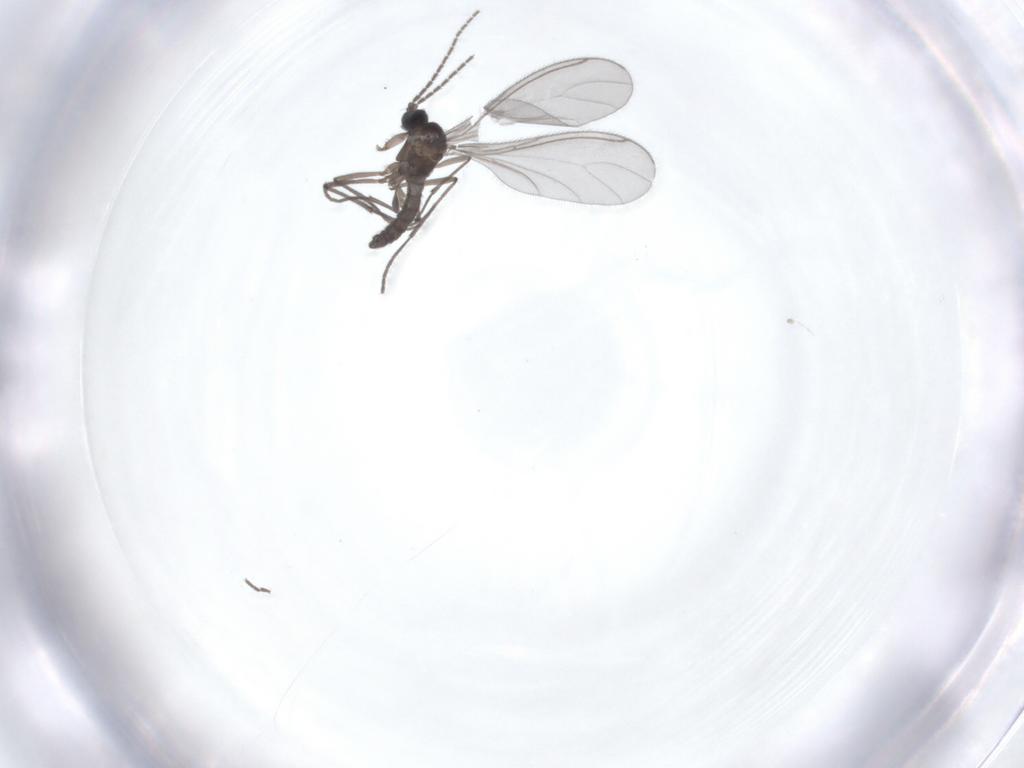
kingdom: Animalia
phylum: Arthropoda
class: Insecta
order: Diptera
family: Sciaridae
